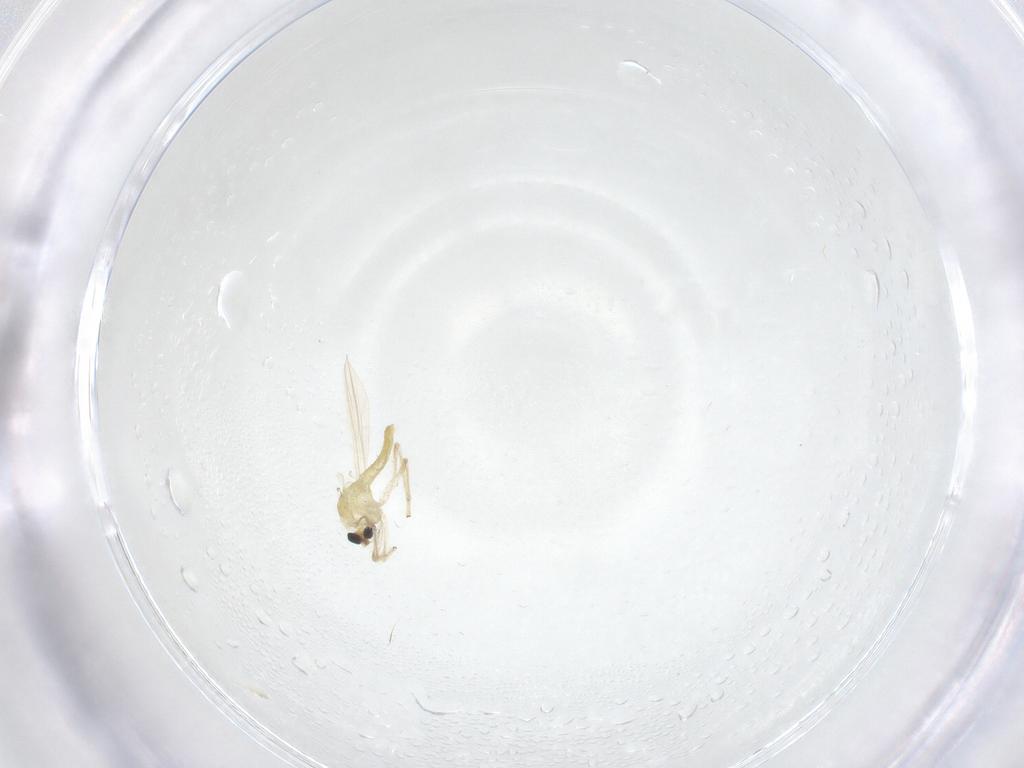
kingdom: Animalia
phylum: Arthropoda
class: Insecta
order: Diptera
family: Chironomidae
